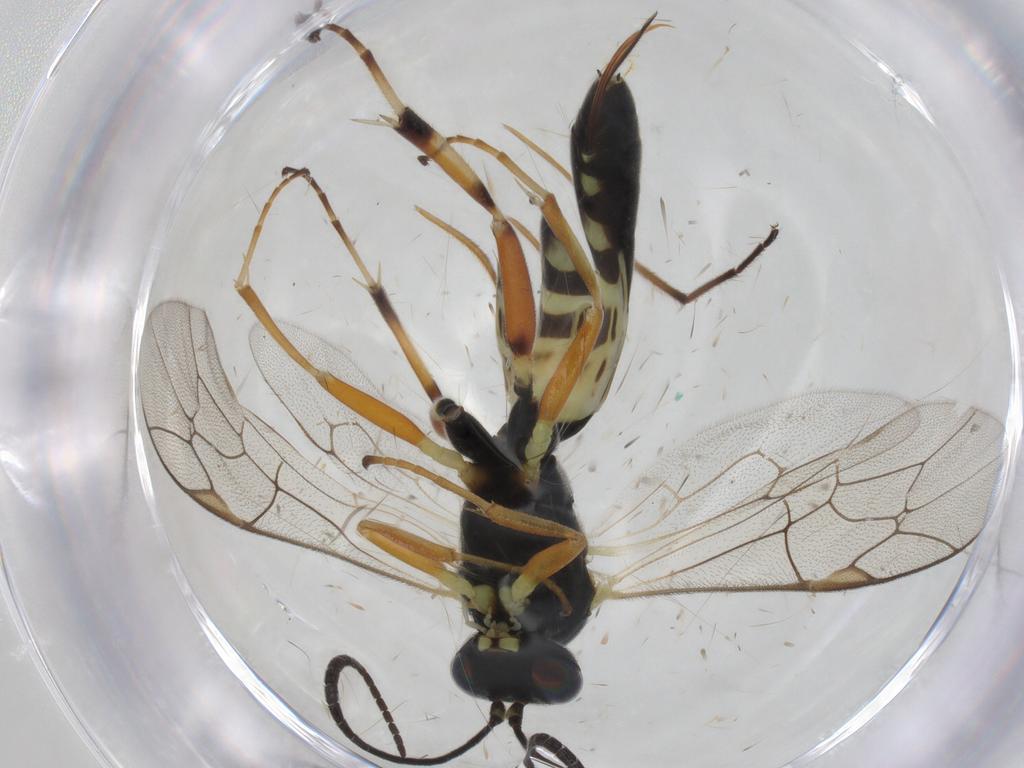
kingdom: Animalia
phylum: Arthropoda
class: Insecta
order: Hymenoptera
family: Ichneumonidae
